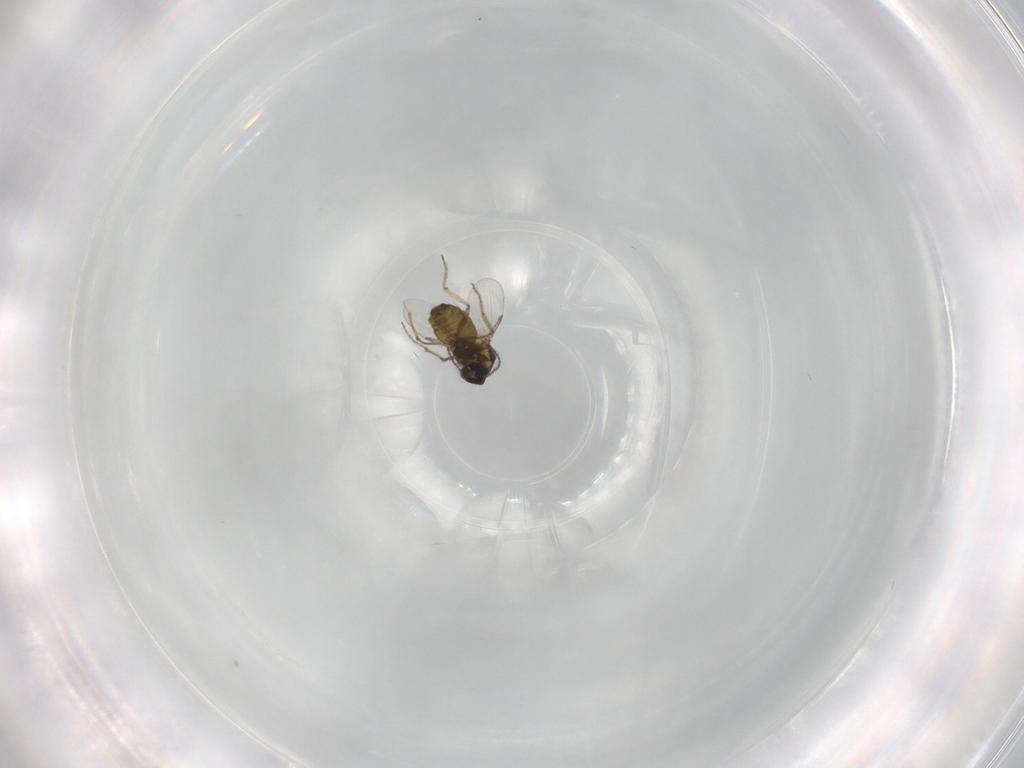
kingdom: Animalia
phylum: Arthropoda
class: Insecta
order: Diptera
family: Ceratopogonidae
